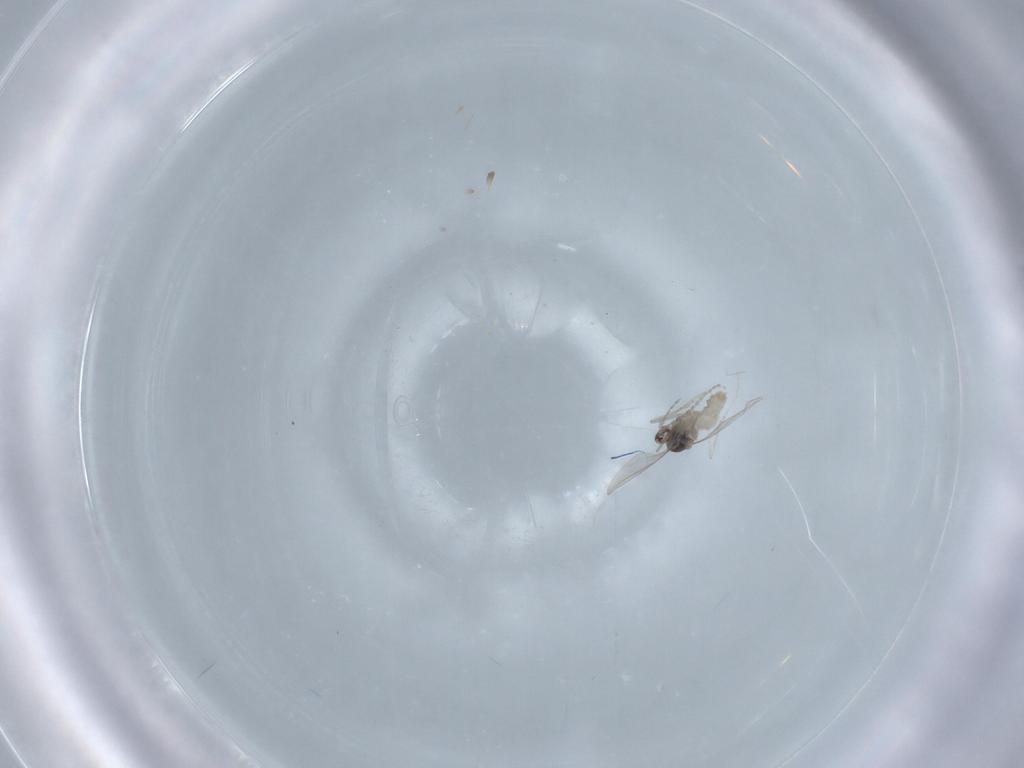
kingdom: Animalia
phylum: Arthropoda
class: Insecta
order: Diptera
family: Cecidomyiidae
